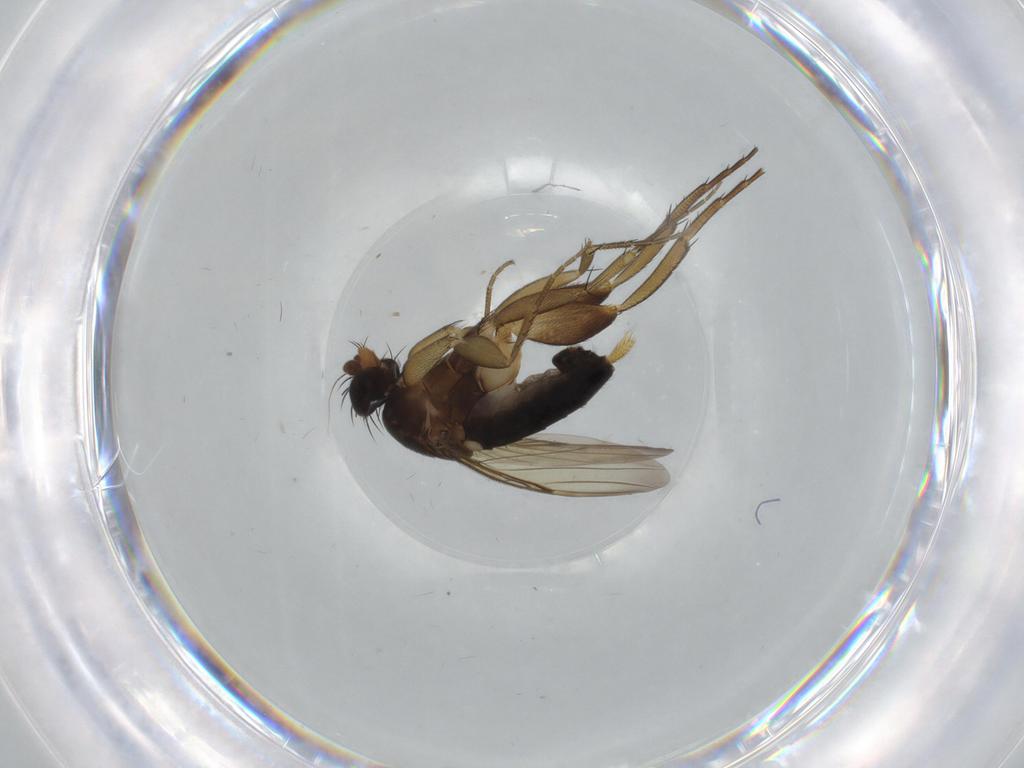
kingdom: Animalia
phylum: Arthropoda
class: Insecta
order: Diptera
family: Phoridae
